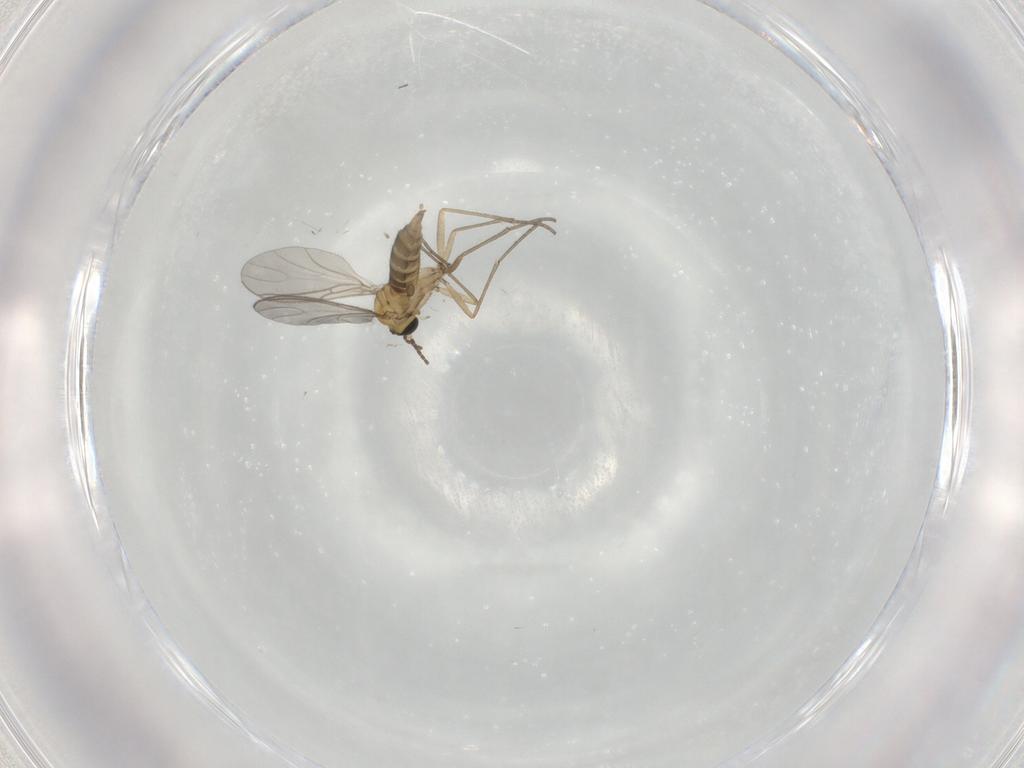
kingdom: Animalia
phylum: Arthropoda
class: Insecta
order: Diptera
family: Sciaridae
